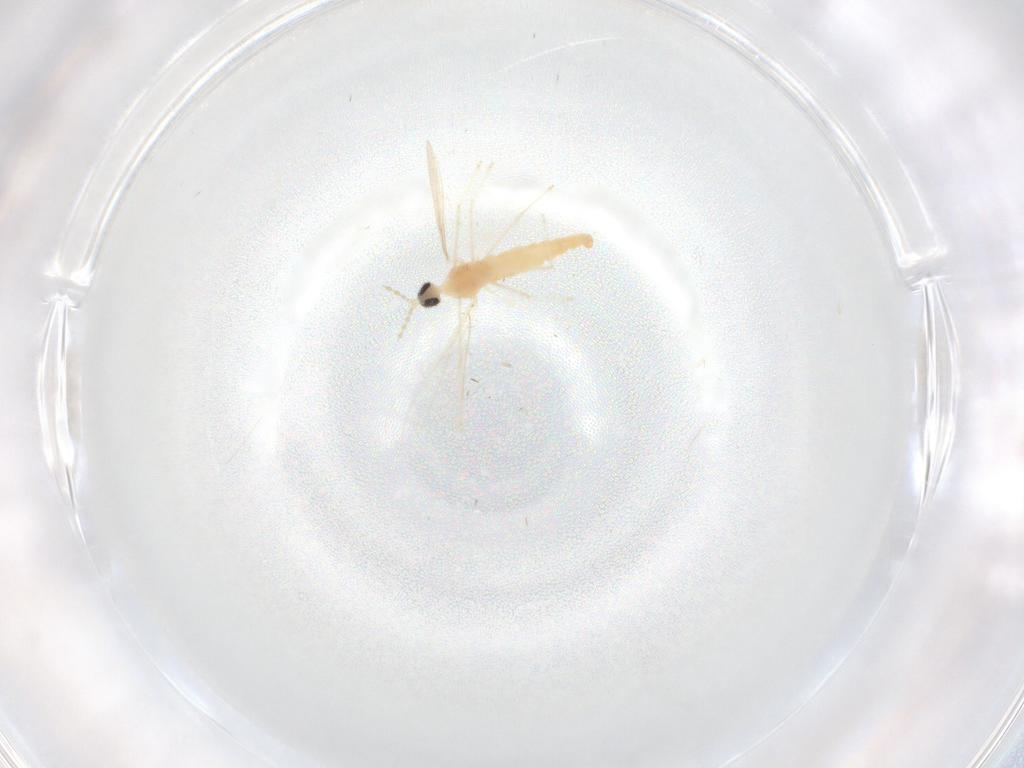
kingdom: Animalia
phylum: Arthropoda
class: Insecta
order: Diptera
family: Cecidomyiidae
